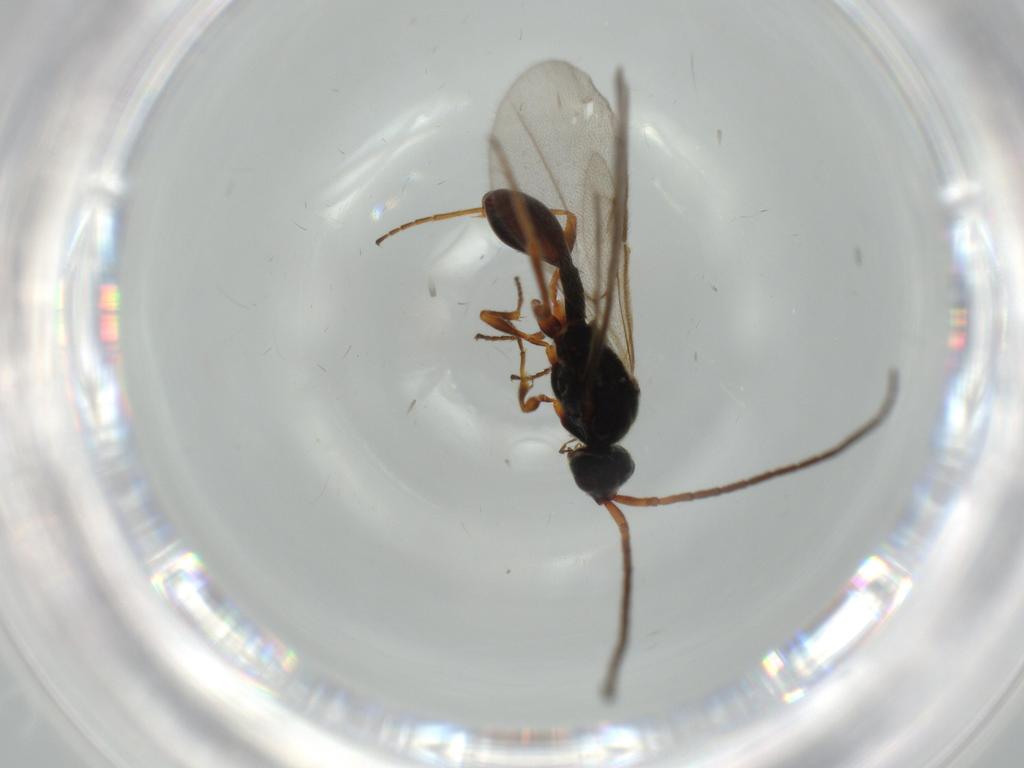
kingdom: Animalia
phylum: Arthropoda
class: Insecta
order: Hymenoptera
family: Diapriidae
